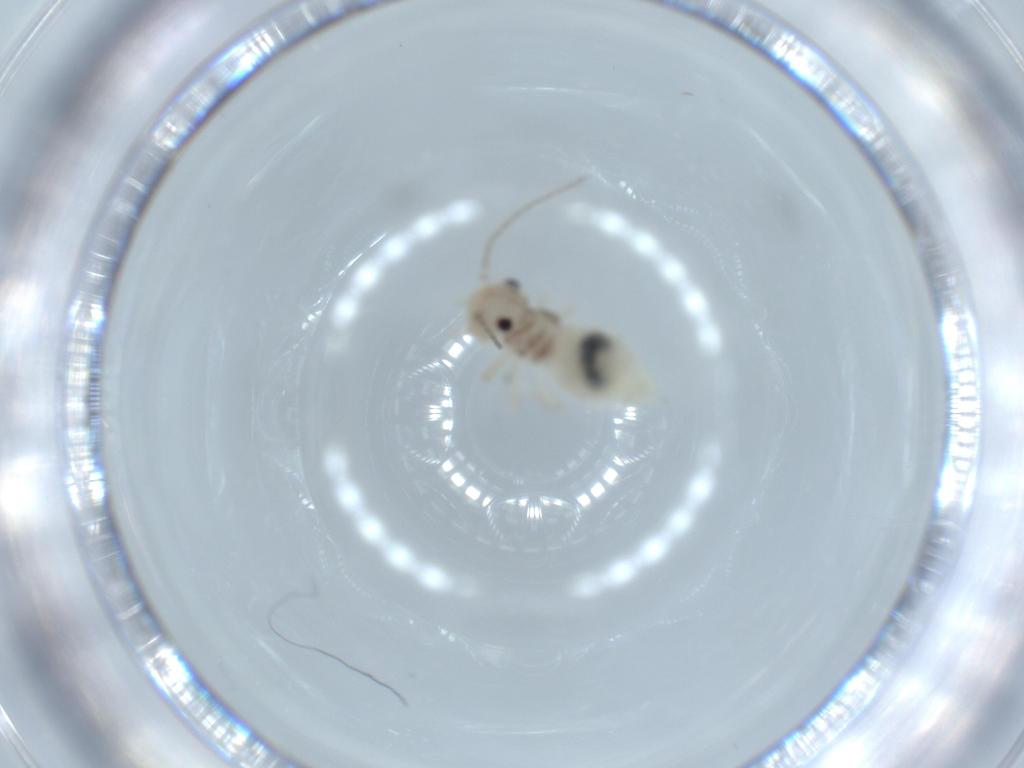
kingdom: Animalia
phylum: Arthropoda
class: Insecta
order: Psocodea
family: Amphipsocidae
